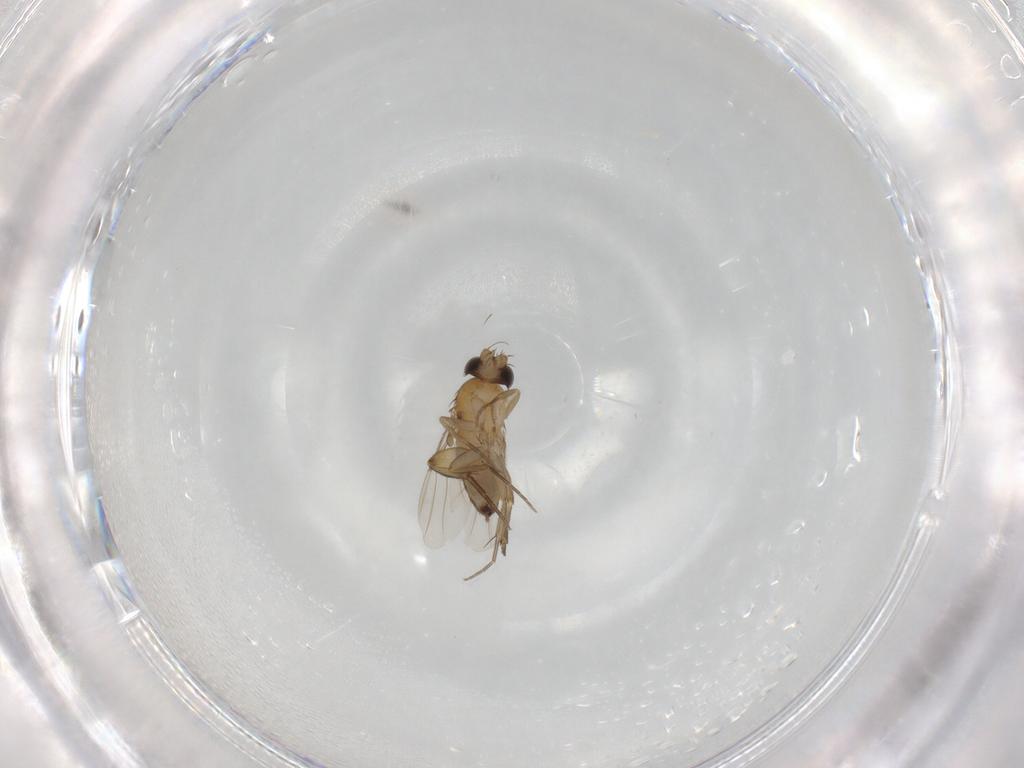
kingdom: Animalia
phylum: Arthropoda
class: Insecta
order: Diptera
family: Phoridae
